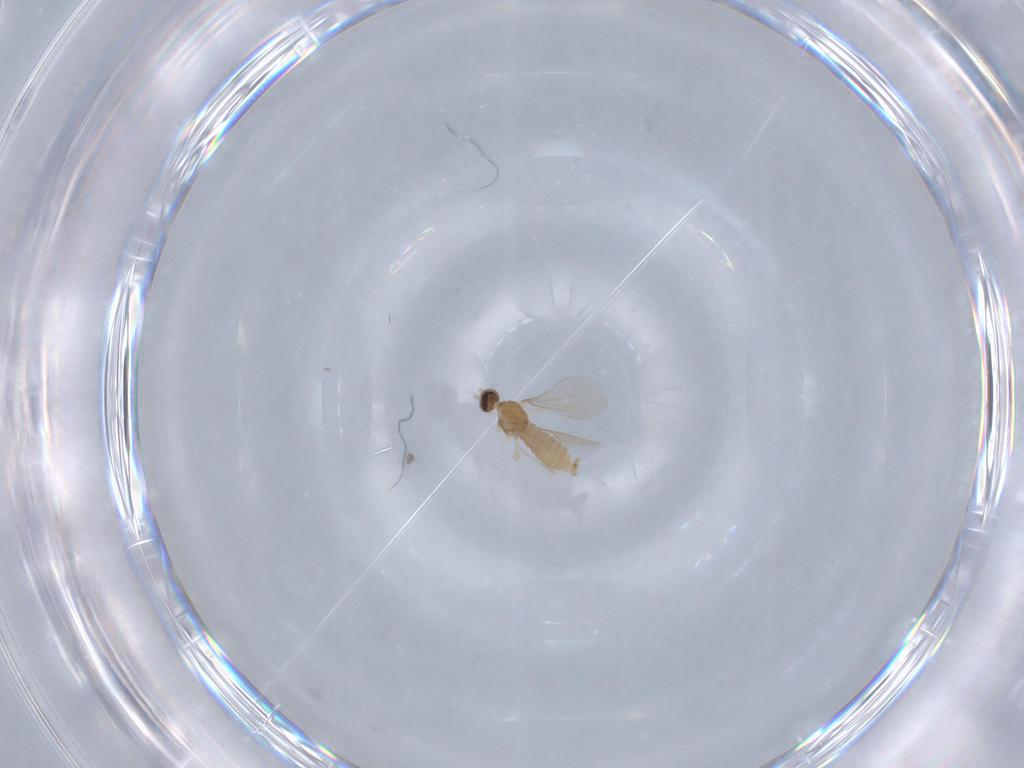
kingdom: Animalia
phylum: Arthropoda
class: Insecta
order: Diptera
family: Cecidomyiidae
